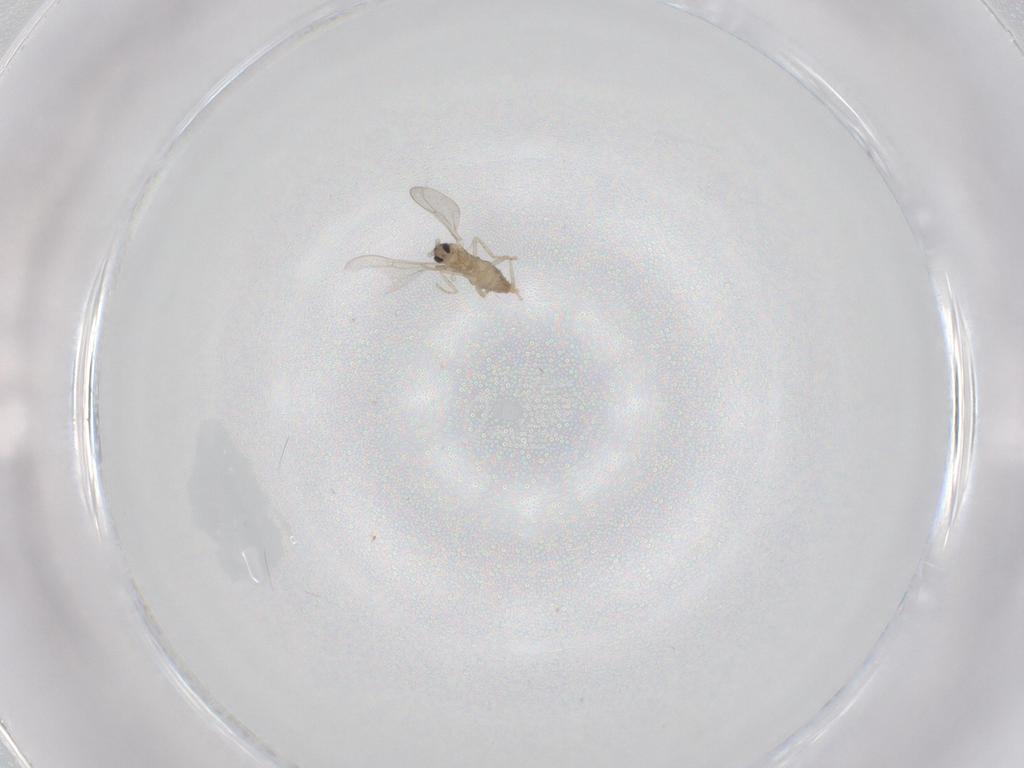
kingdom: Animalia
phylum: Arthropoda
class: Insecta
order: Diptera
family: Cecidomyiidae
